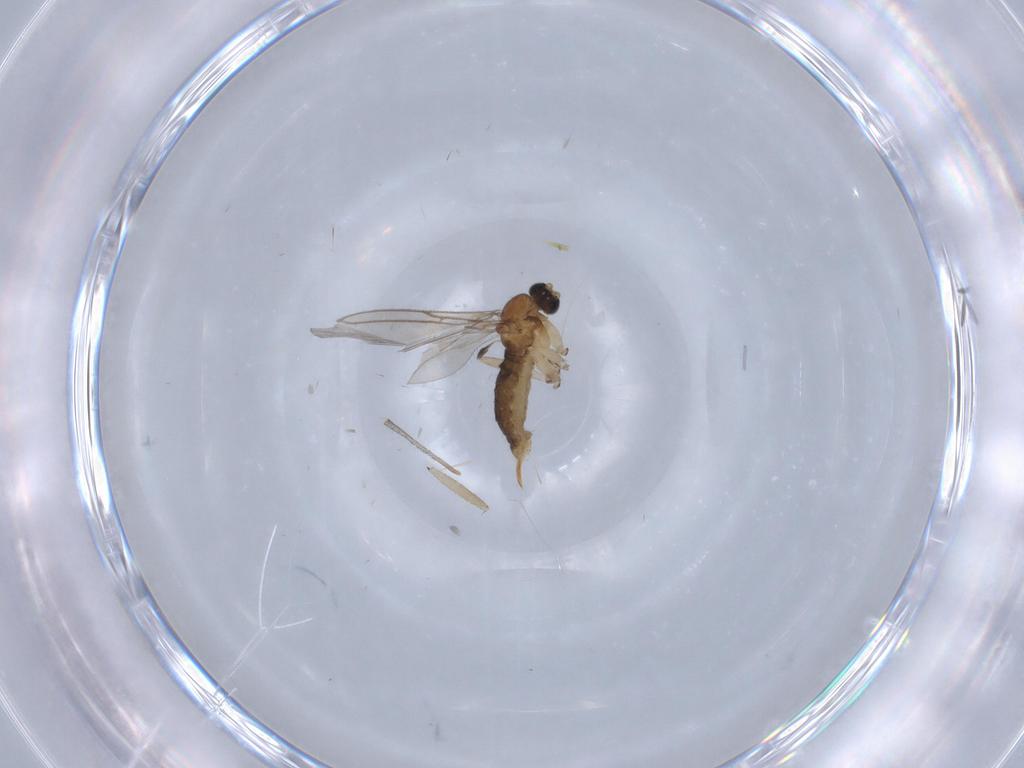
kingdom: Animalia
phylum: Arthropoda
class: Insecta
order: Diptera
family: Sciaridae
